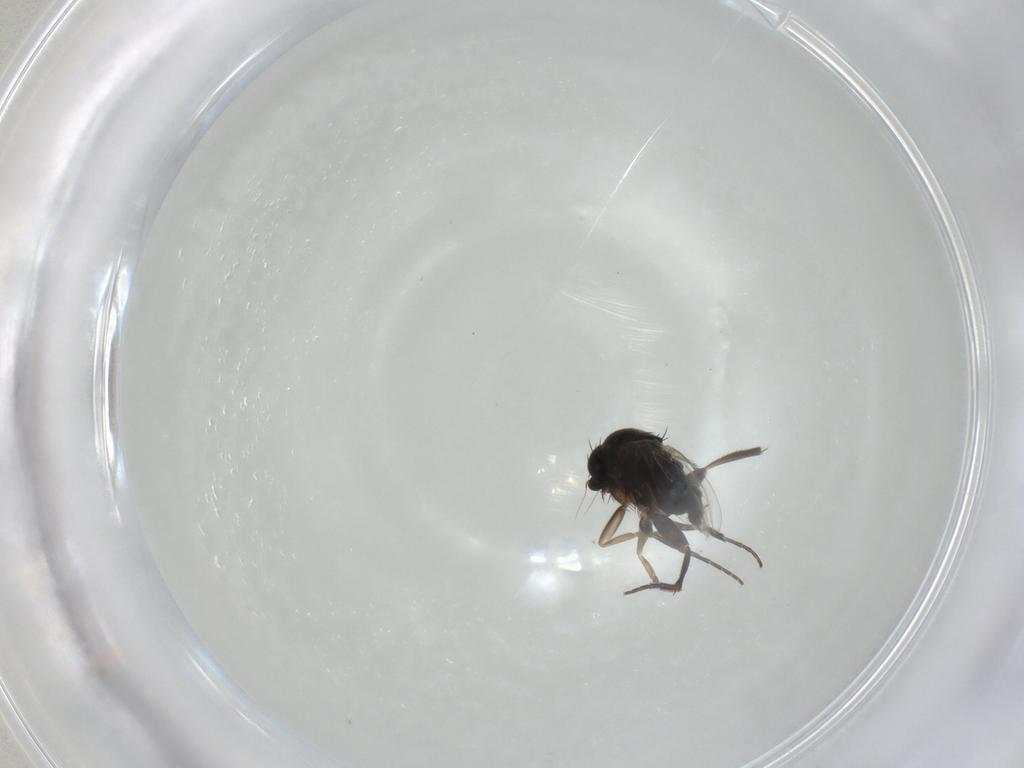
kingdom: Animalia
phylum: Arthropoda
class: Insecta
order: Diptera
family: Phoridae
